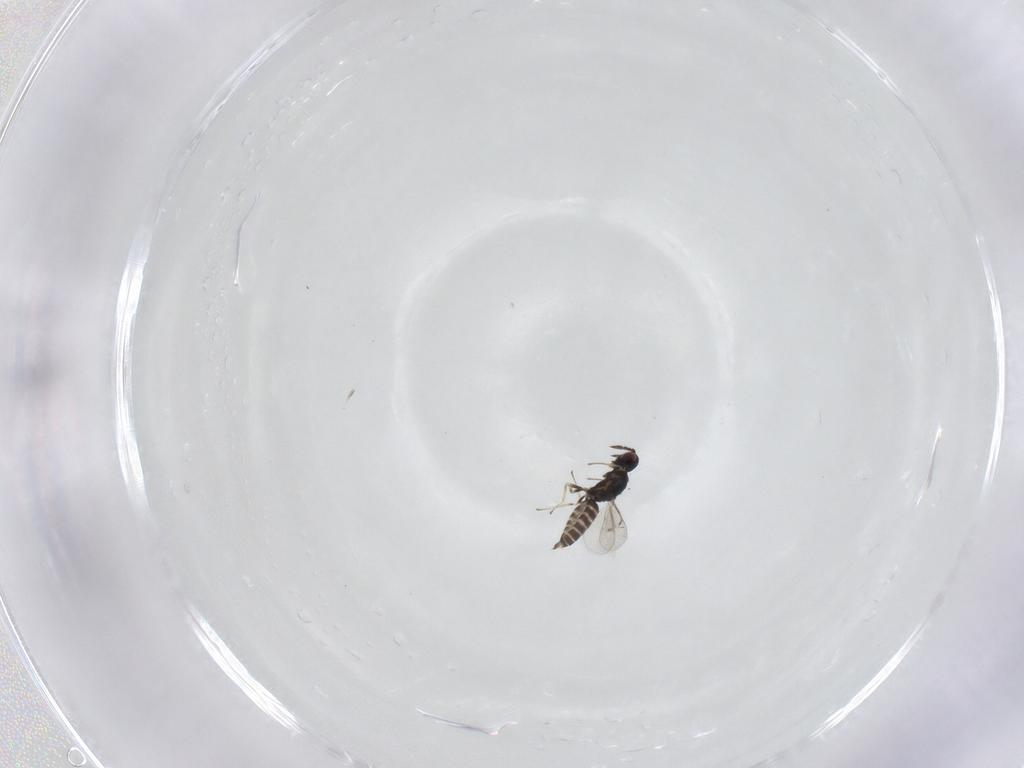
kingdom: Animalia
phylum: Arthropoda
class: Insecta
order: Hymenoptera
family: Eulophidae
